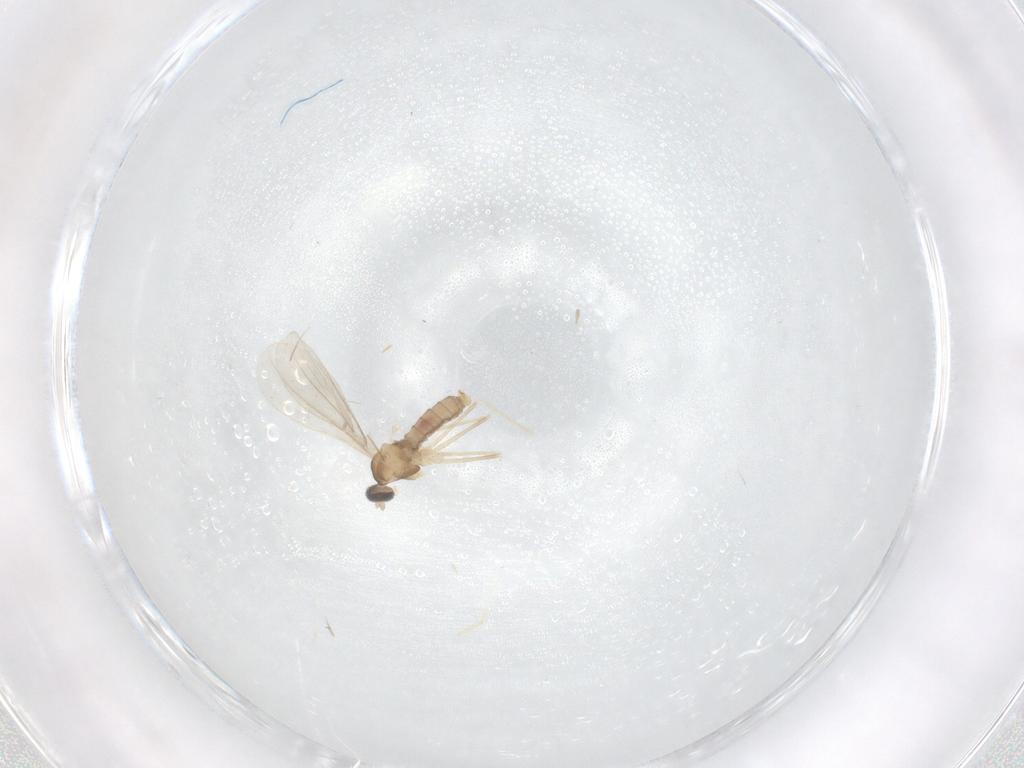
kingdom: Animalia
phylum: Arthropoda
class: Insecta
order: Diptera
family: Cecidomyiidae
